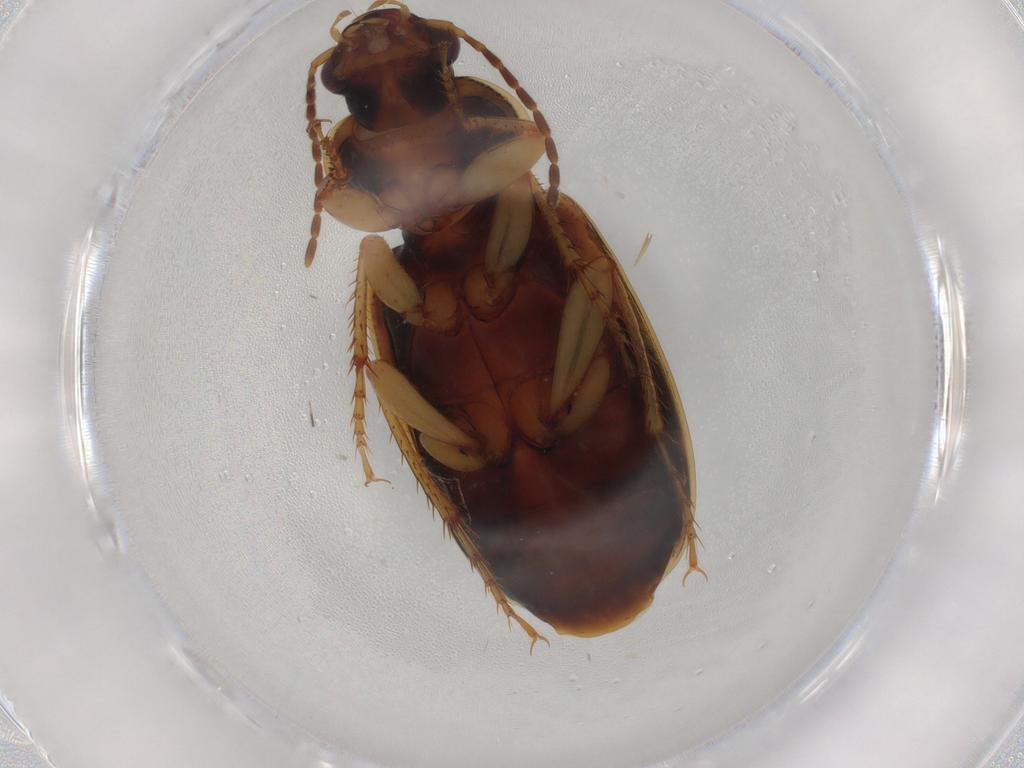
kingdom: Animalia
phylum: Arthropoda
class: Insecta
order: Coleoptera
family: Carabidae
